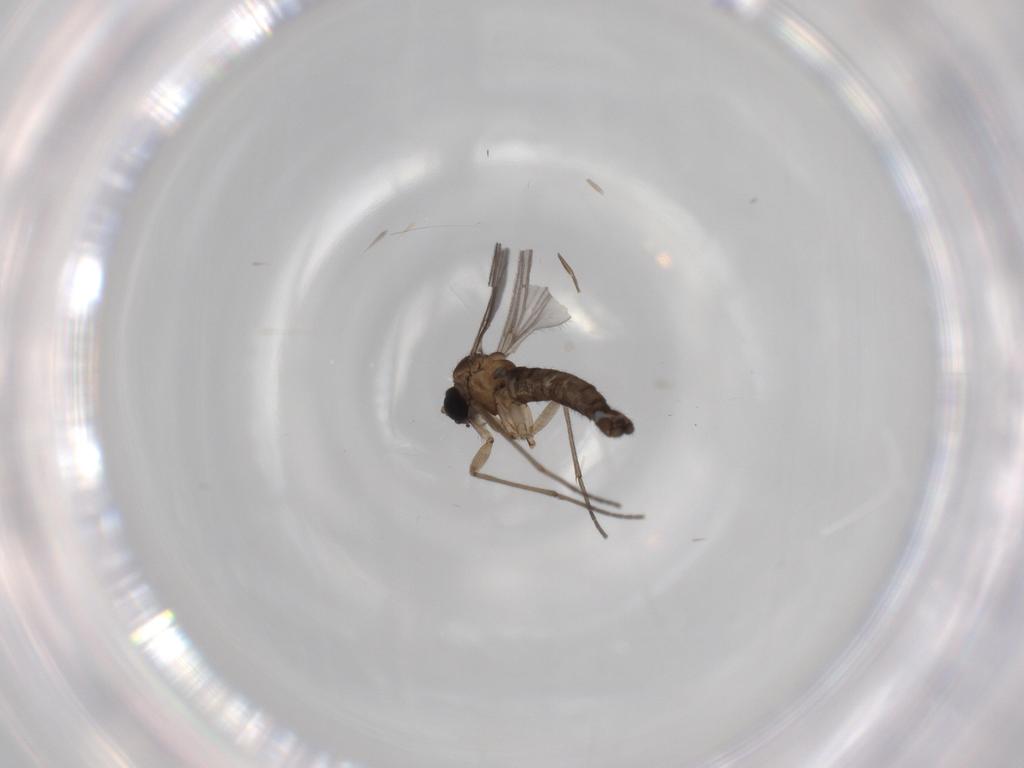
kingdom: Animalia
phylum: Arthropoda
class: Insecta
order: Diptera
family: Sciaridae
